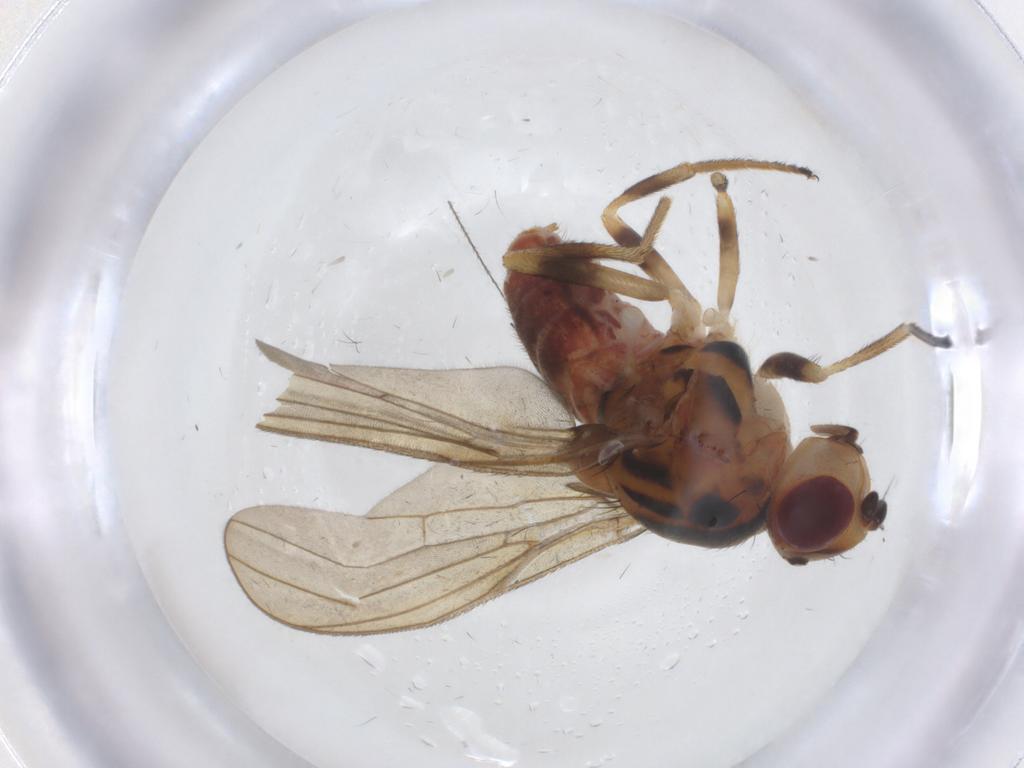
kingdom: Animalia
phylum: Arthropoda
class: Insecta
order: Diptera
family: Chloropidae
